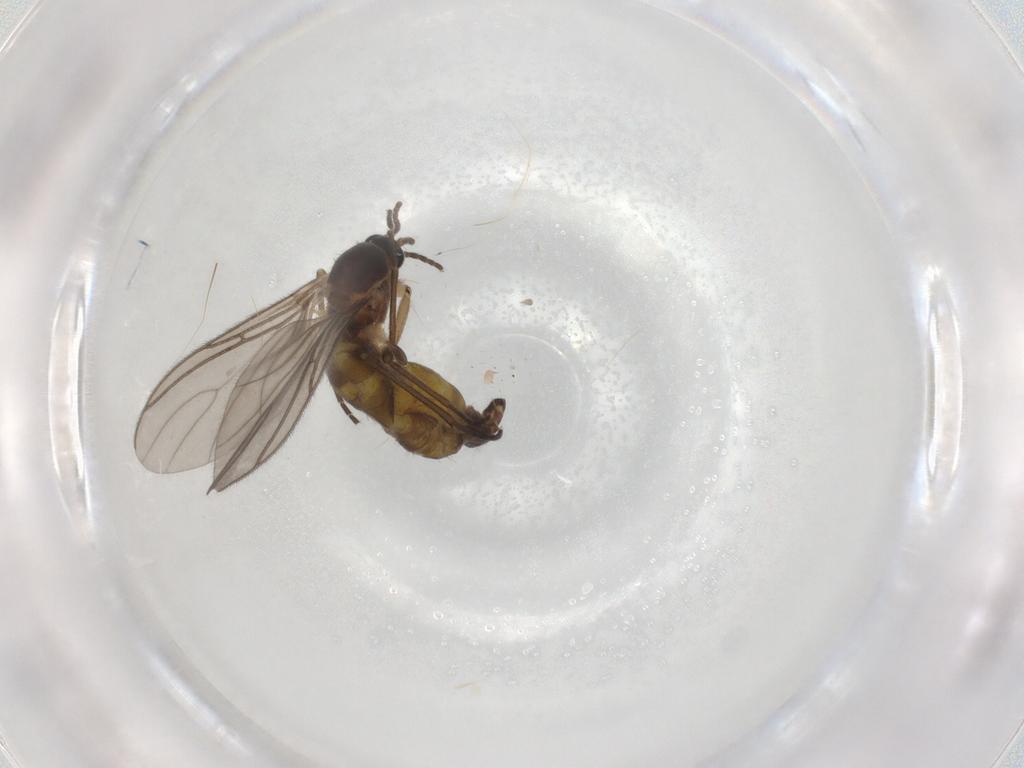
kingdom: Animalia
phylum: Arthropoda
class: Insecta
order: Diptera
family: Sciaridae
